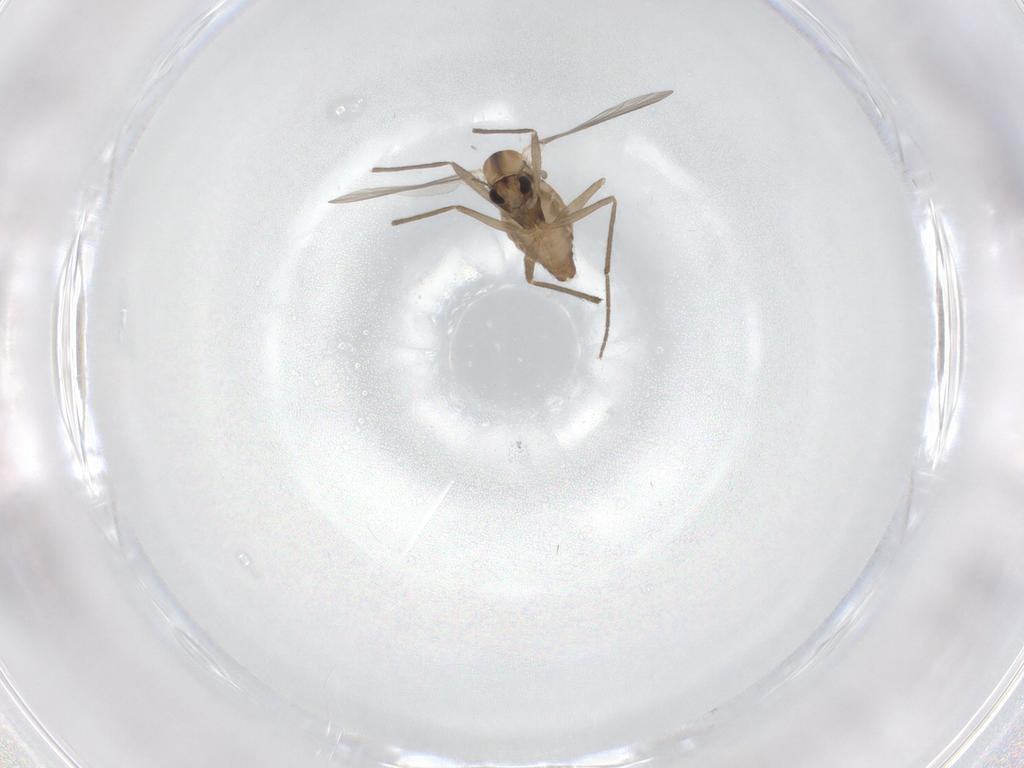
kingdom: Animalia
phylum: Arthropoda
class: Insecta
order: Diptera
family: Chironomidae
